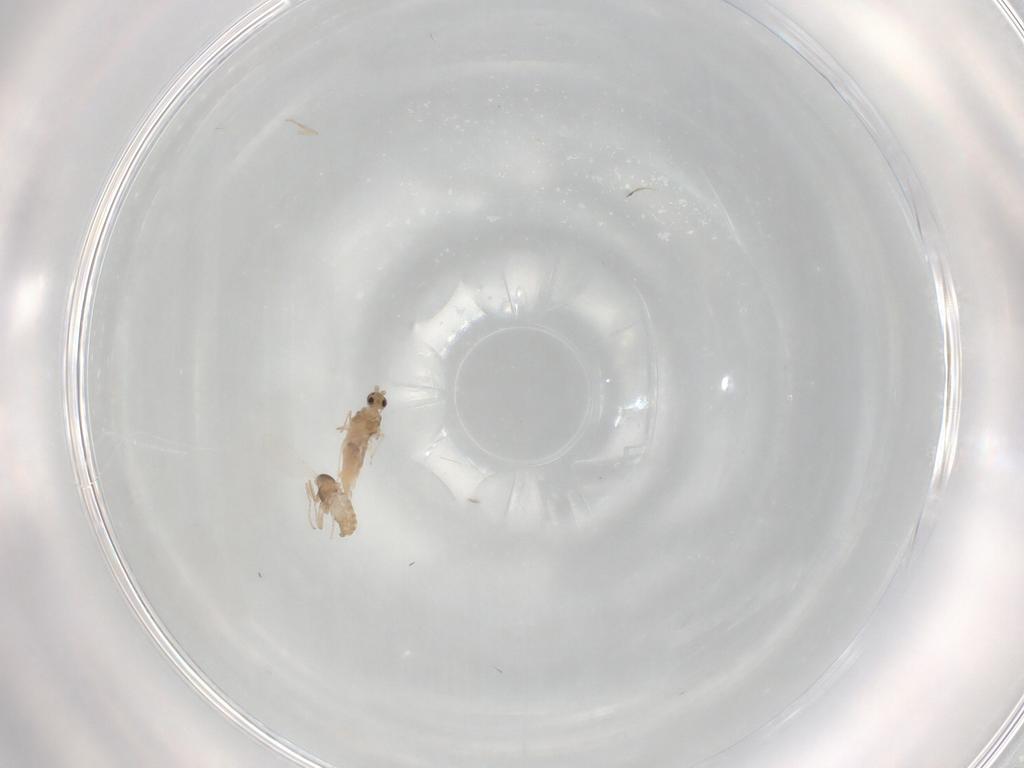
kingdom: Animalia
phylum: Arthropoda
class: Insecta
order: Diptera
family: Cecidomyiidae
